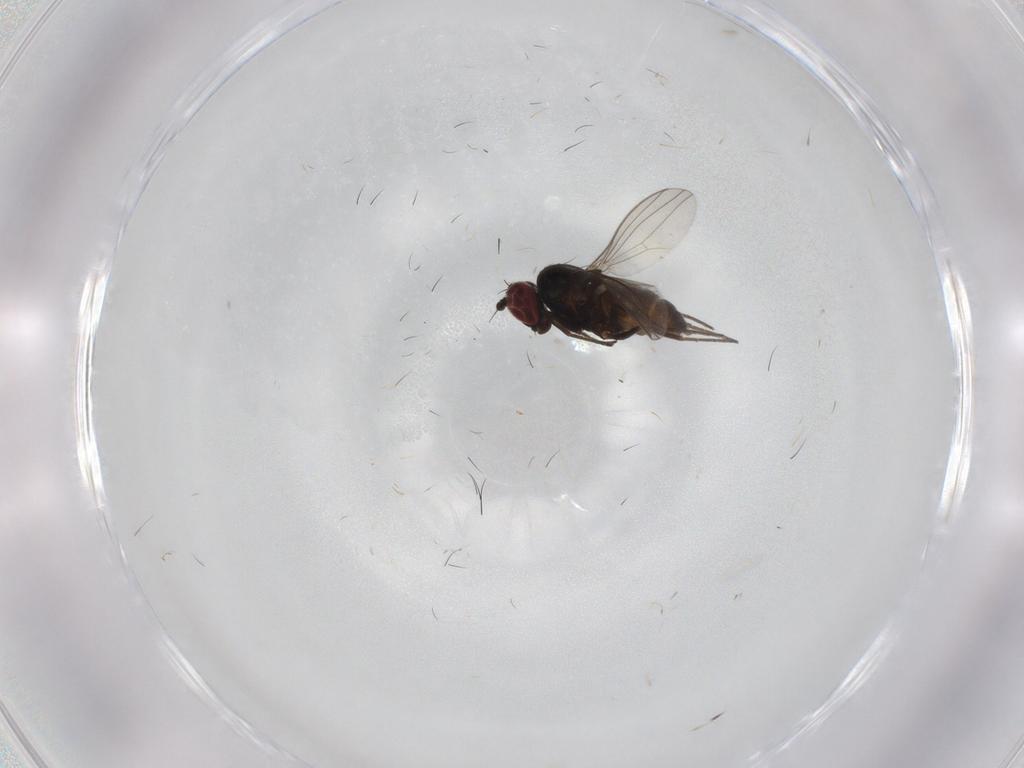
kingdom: Animalia
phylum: Arthropoda
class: Insecta
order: Diptera
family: Dolichopodidae
